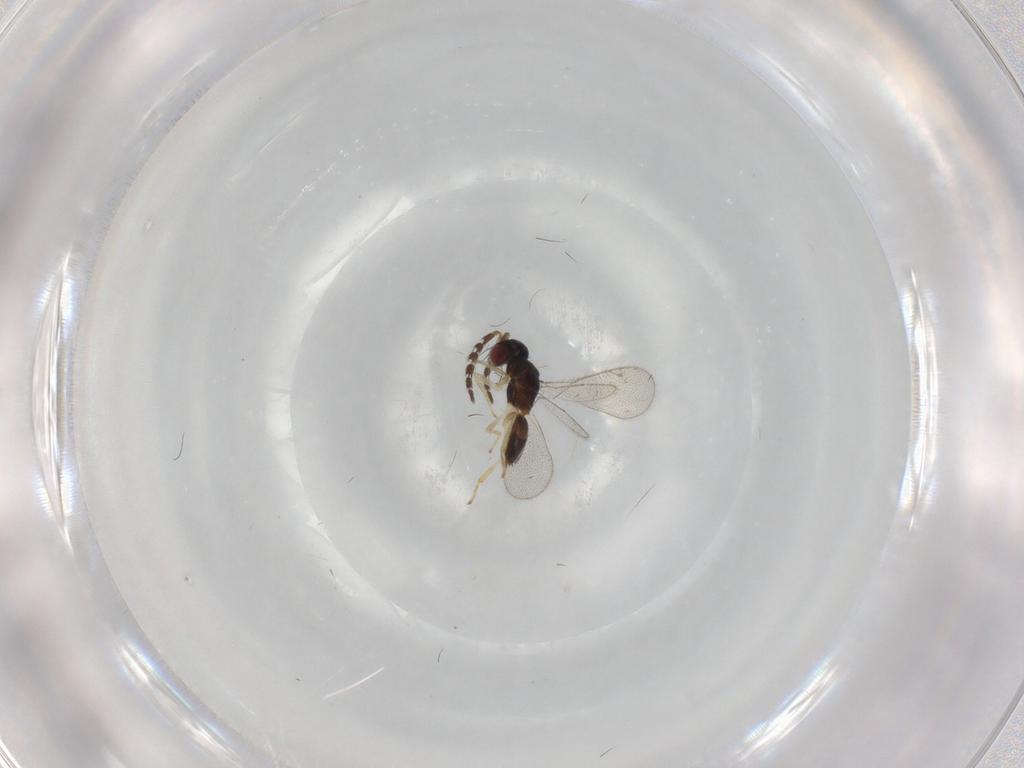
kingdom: Animalia
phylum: Arthropoda
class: Insecta
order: Hymenoptera
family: Eulophidae
